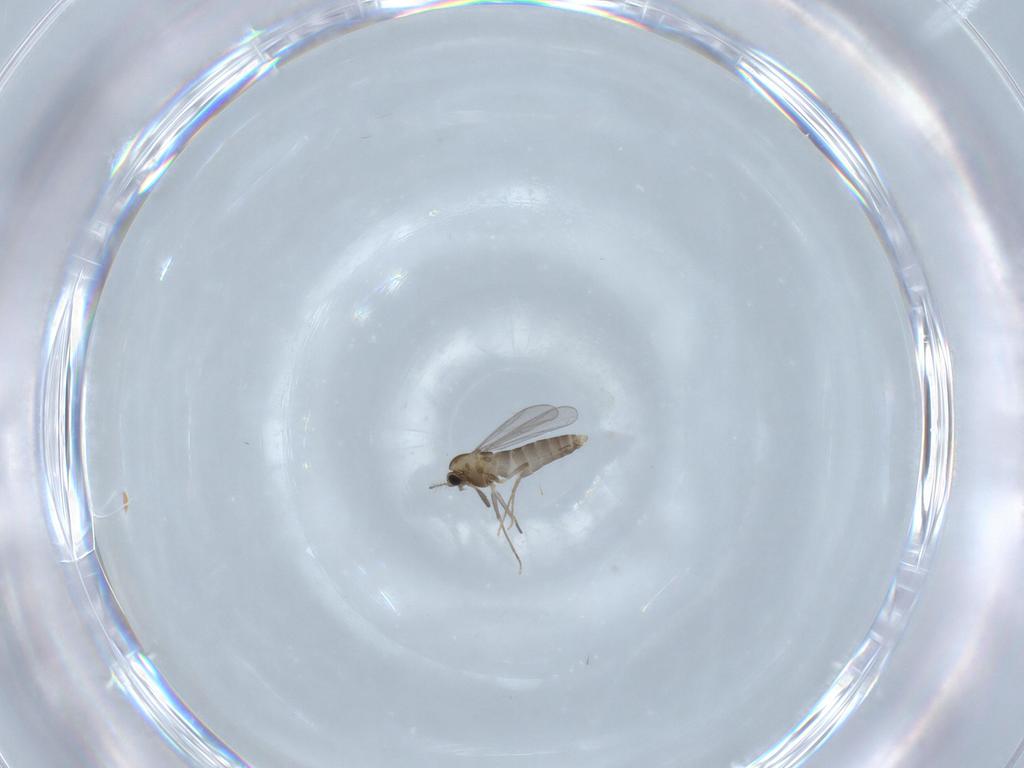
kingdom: Animalia
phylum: Arthropoda
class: Insecta
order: Diptera
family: Chironomidae
